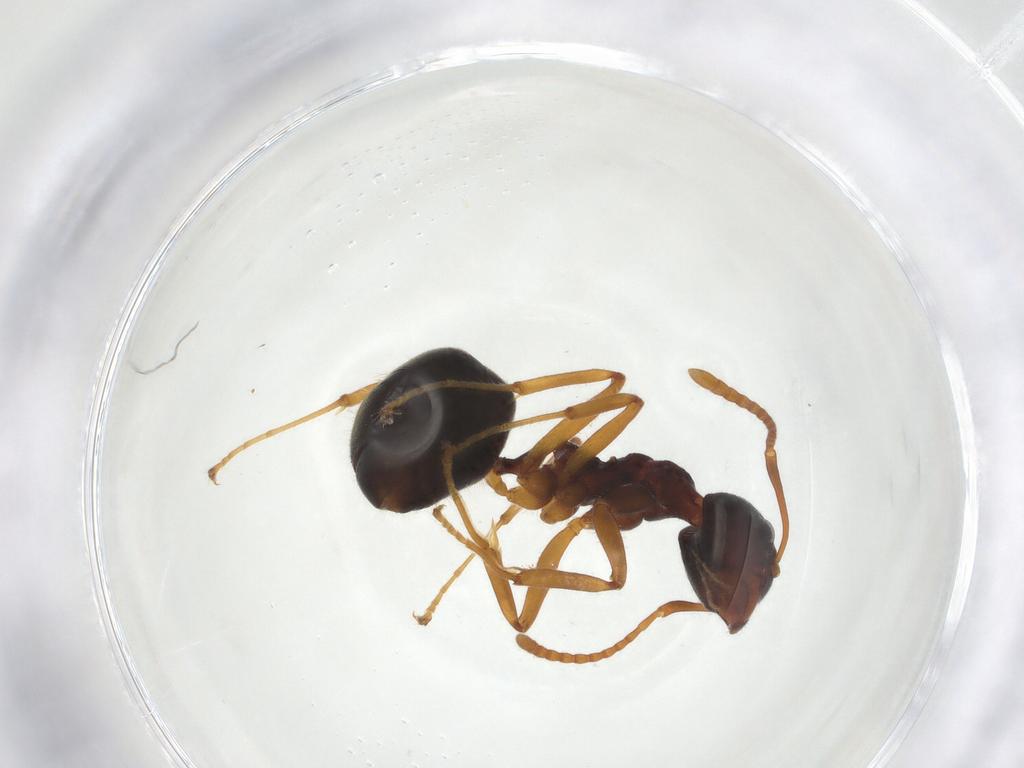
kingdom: Animalia
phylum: Arthropoda
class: Insecta
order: Hymenoptera
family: Formicidae
